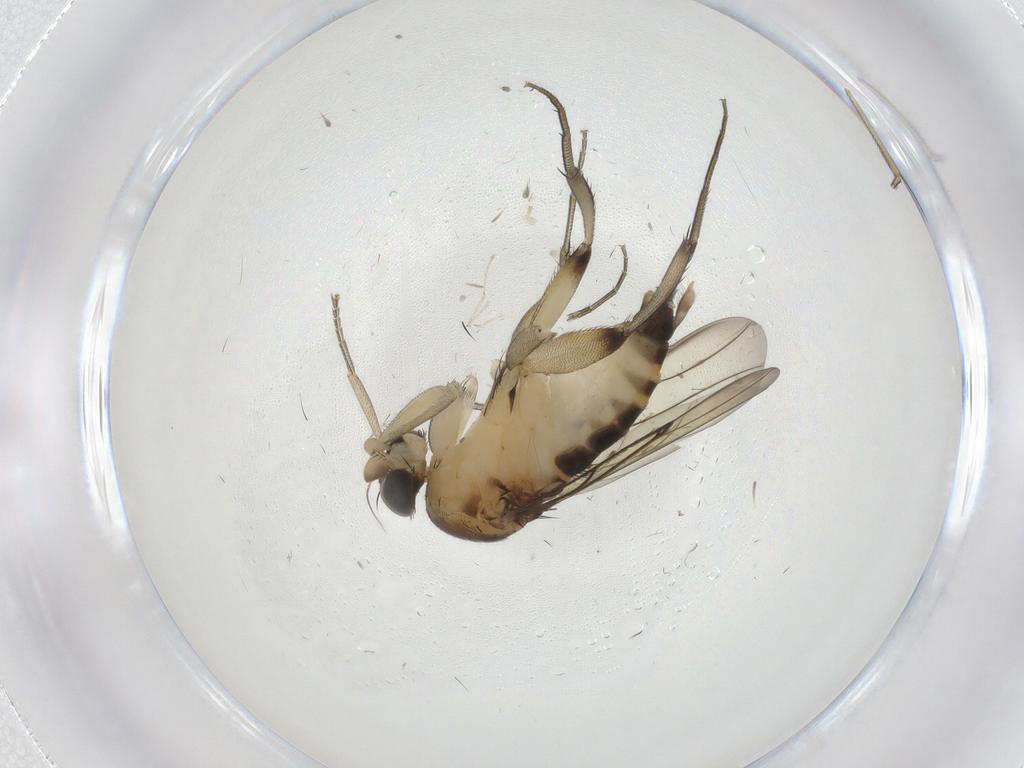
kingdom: Animalia
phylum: Arthropoda
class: Insecta
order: Diptera
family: Phoridae
